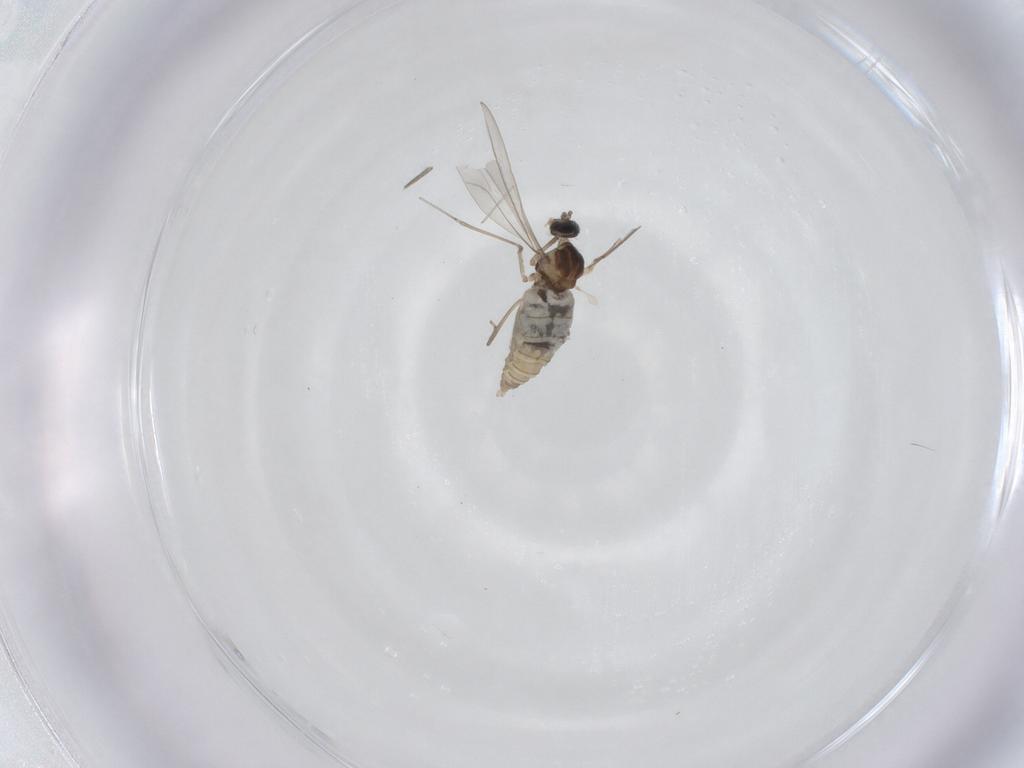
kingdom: Animalia
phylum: Arthropoda
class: Insecta
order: Diptera
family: Cecidomyiidae
